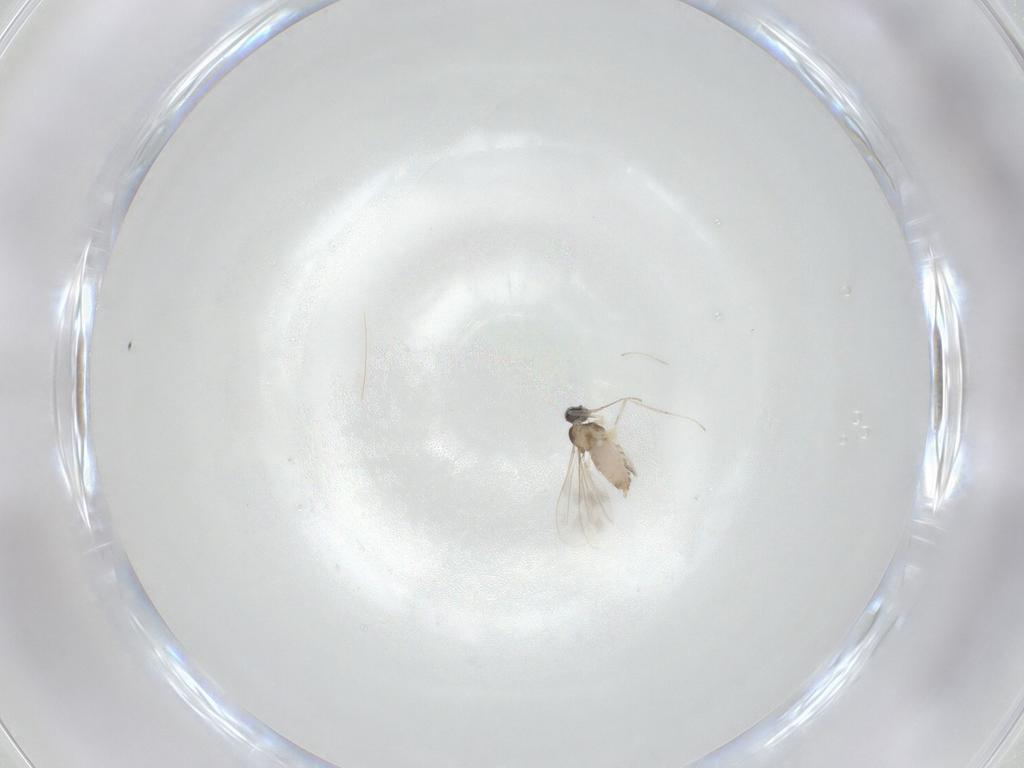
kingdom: Animalia
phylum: Arthropoda
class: Insecta
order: Diptera
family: Cecidomyiidae
